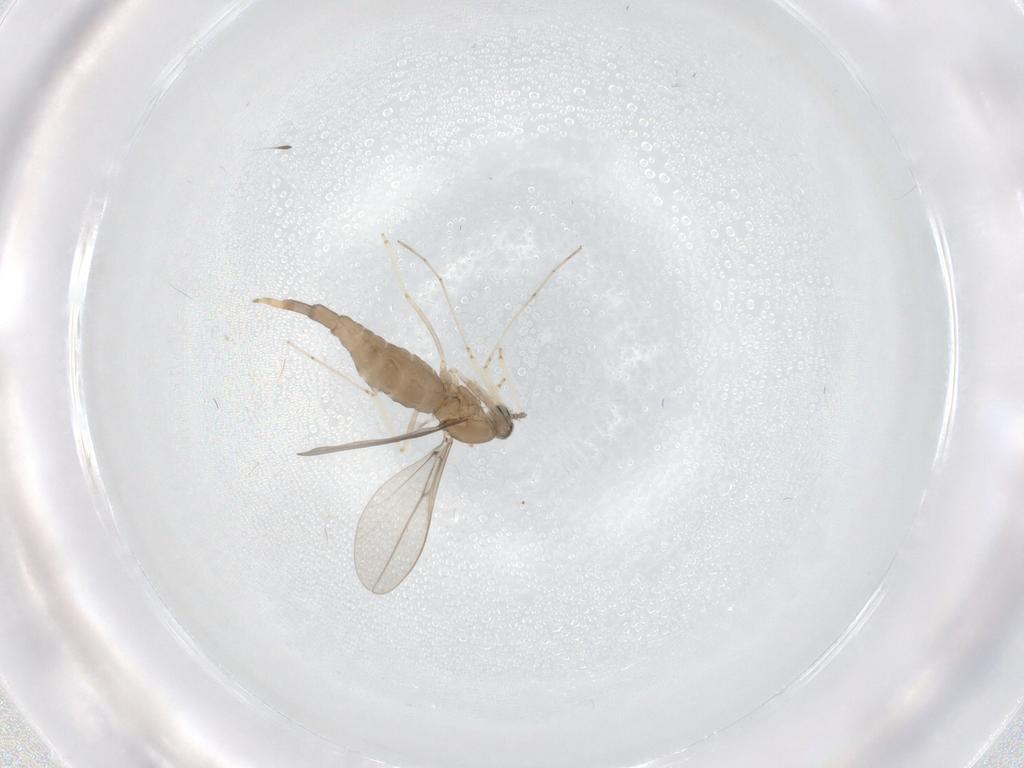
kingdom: Animalia
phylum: Arthropoda
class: Insecta
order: Diptera
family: Cecidomyiidae
